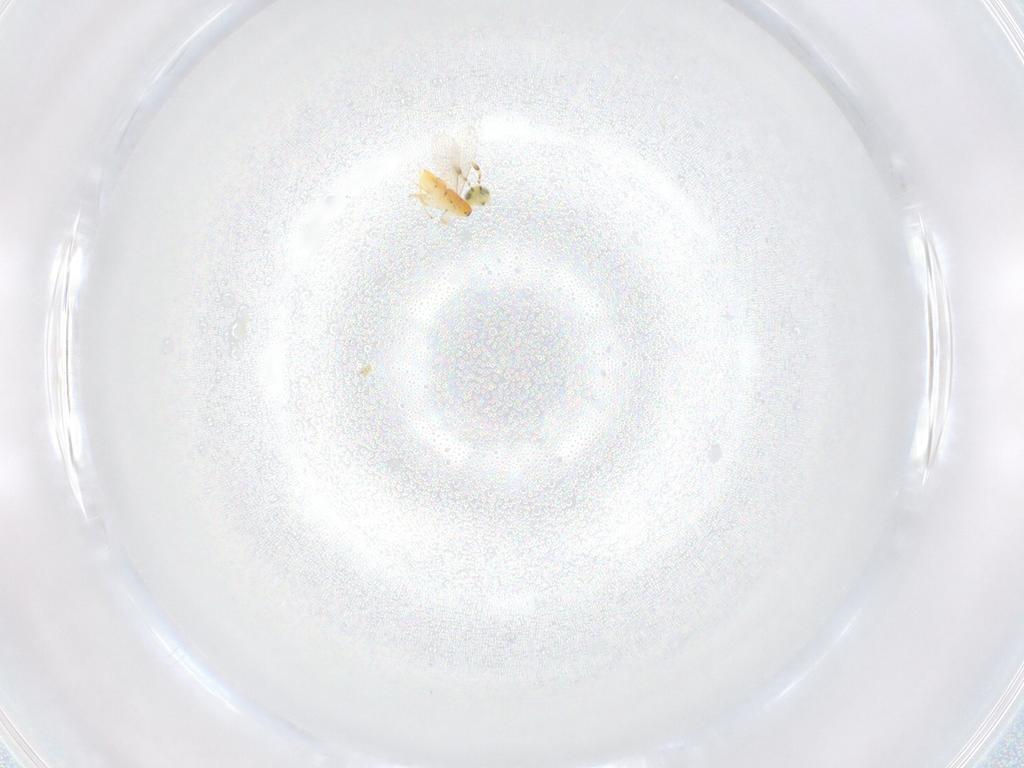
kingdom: Animalia
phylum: Arthropoda
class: Insecta
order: Hymenoptera
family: Encyrtidae
